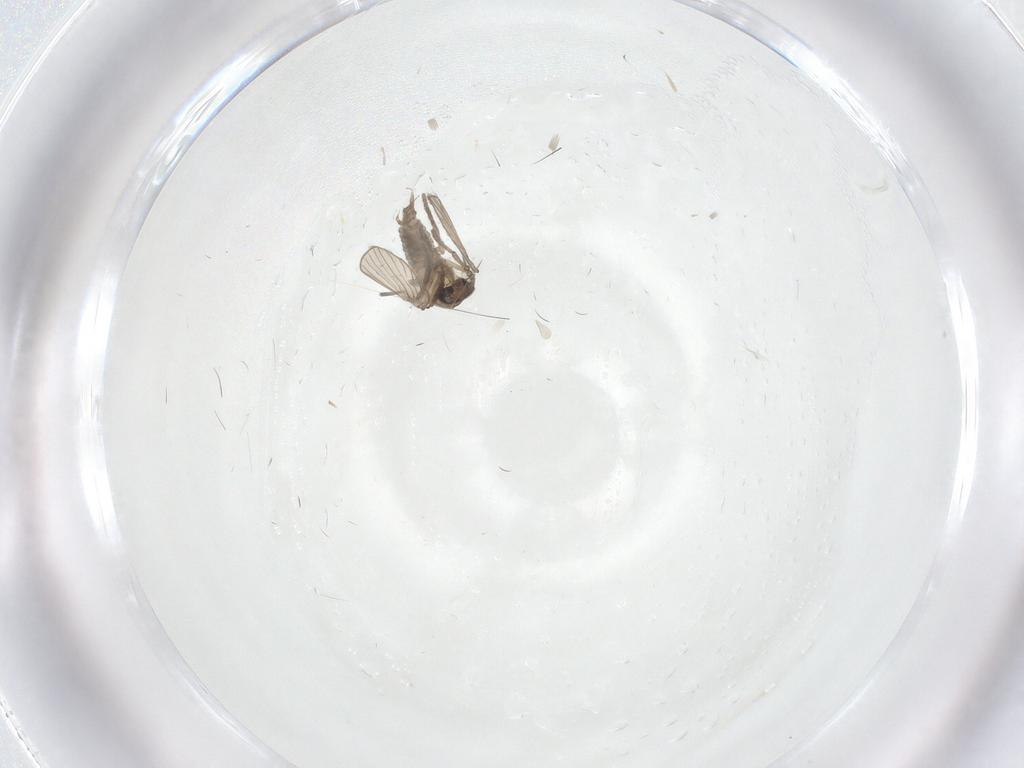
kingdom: Animalia
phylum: Arthropoda
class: Insecta
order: Diptera
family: Psychodidae
